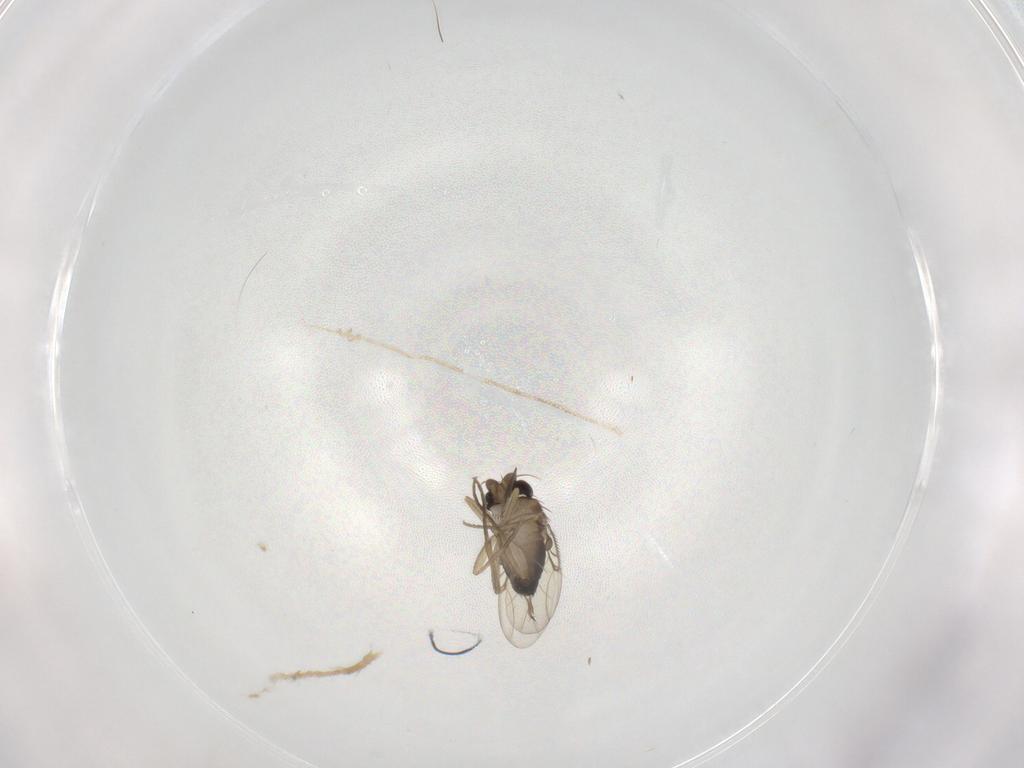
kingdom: Animalia
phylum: Arthropoda
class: Insecta
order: Diptera
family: Phoridae
